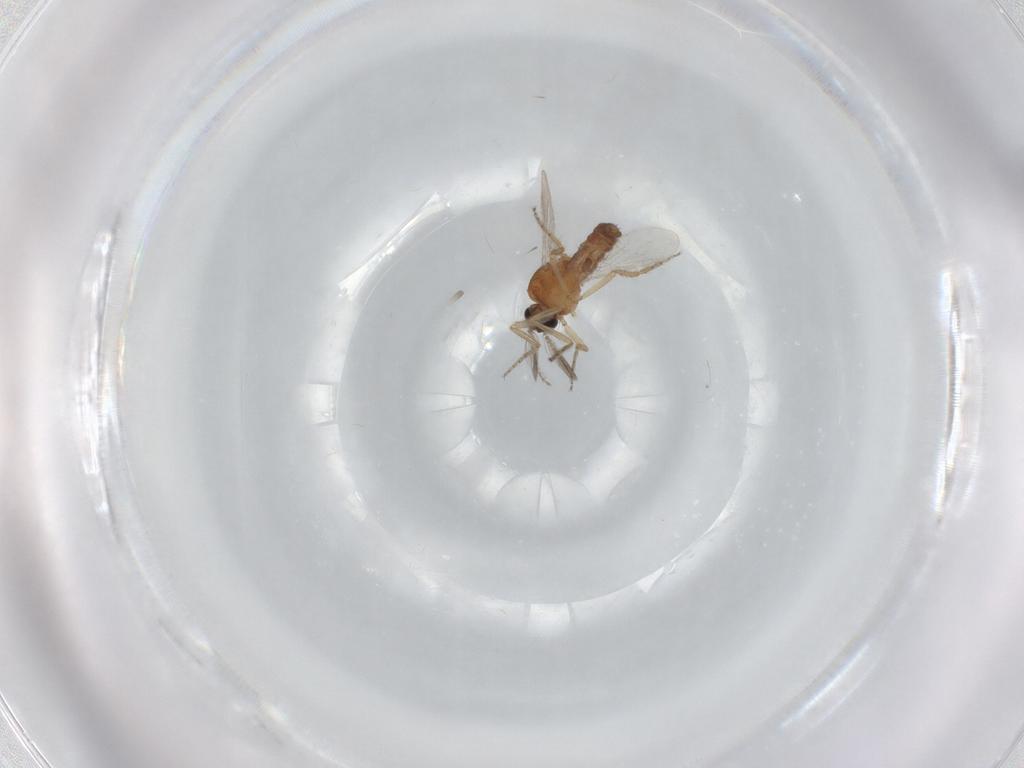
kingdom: Animalia
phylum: Arthropoda
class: Insecta
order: Diptera
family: Ceratopogonidae
